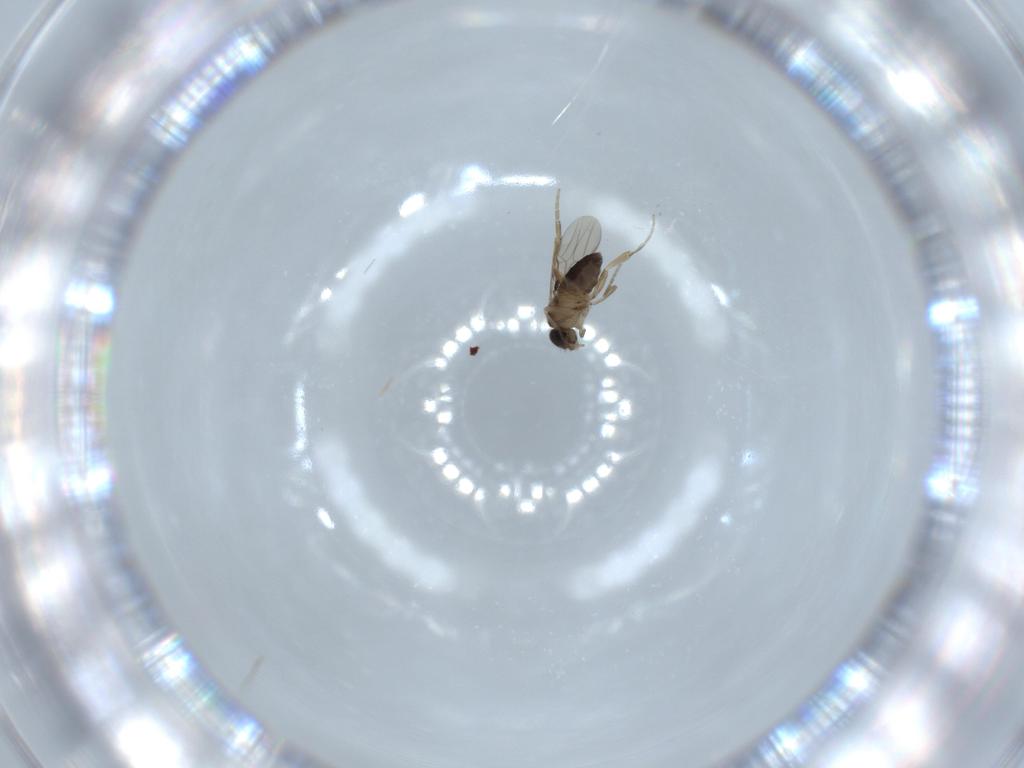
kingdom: Animalia
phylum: Arthropoda
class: Insecta
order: Diptera
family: Phoridae
